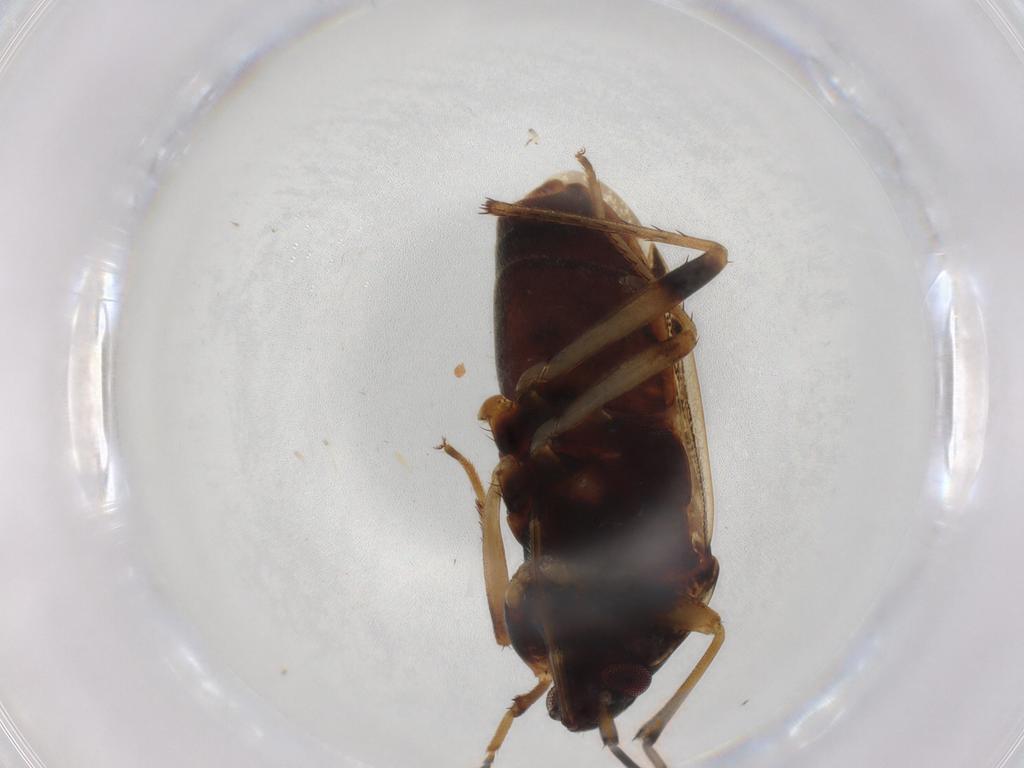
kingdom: Animalia
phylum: Arthropoda
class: Insecta
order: Hemiptera
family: Rhyparochromidae
